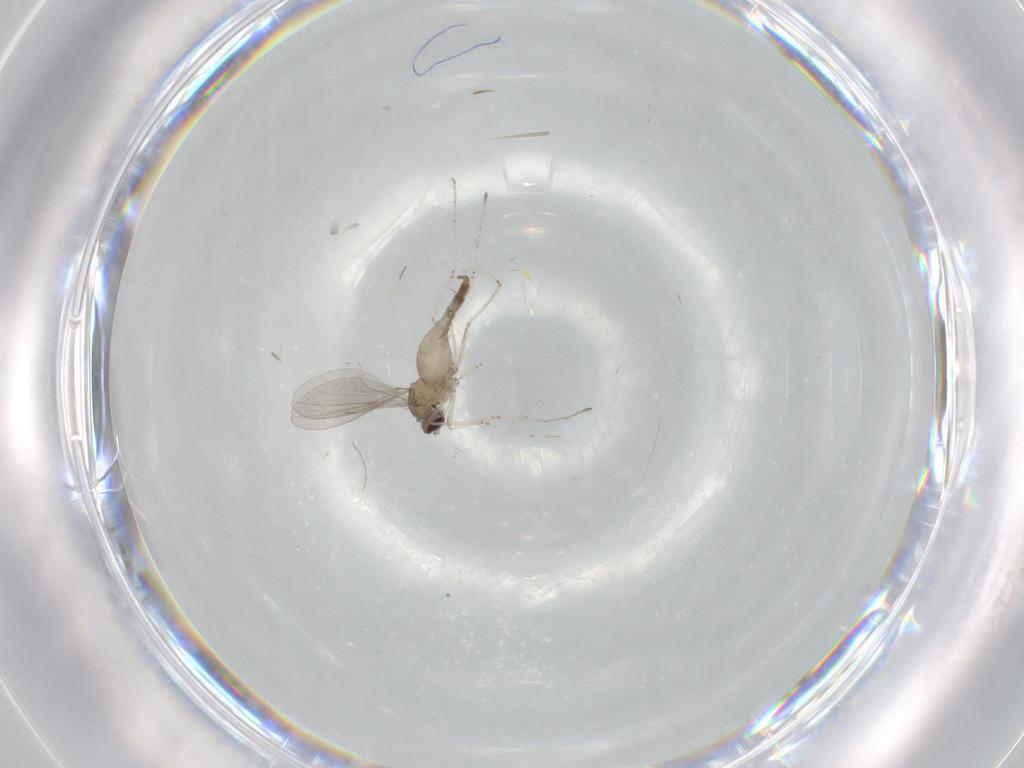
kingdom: Animalia
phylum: Arthropoda
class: Insecta
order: Diptera
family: Cecidomyiidae
